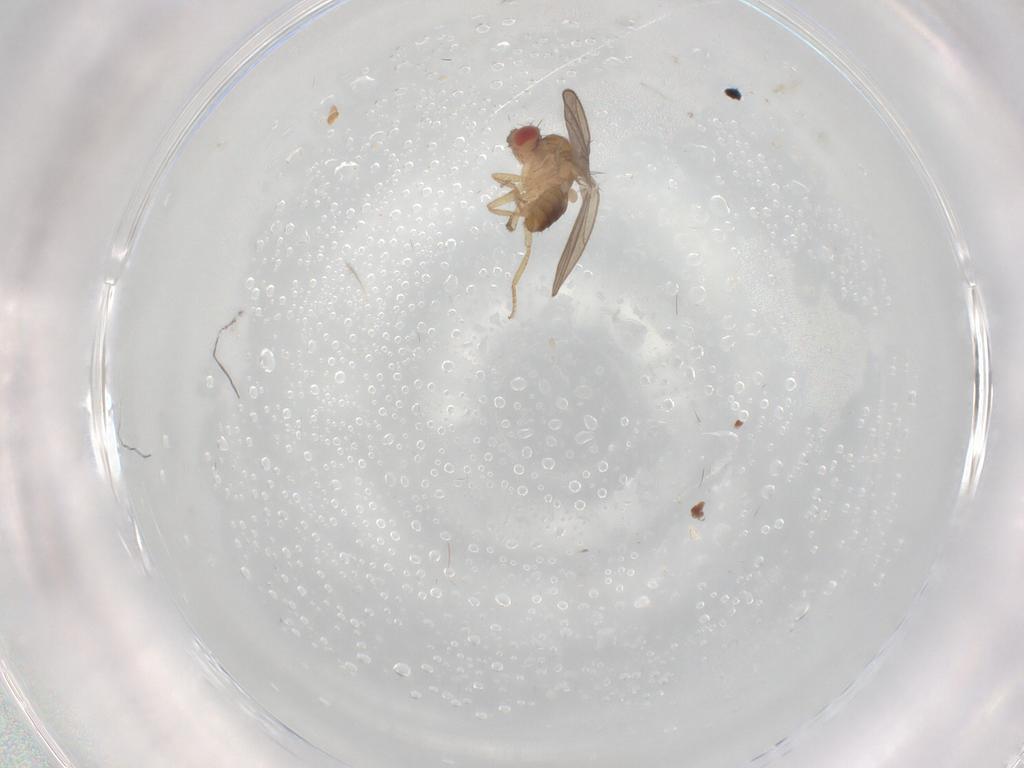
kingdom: Animalia
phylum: Arthropoda
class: Insecta
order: Diptera
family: Drosophilidae
